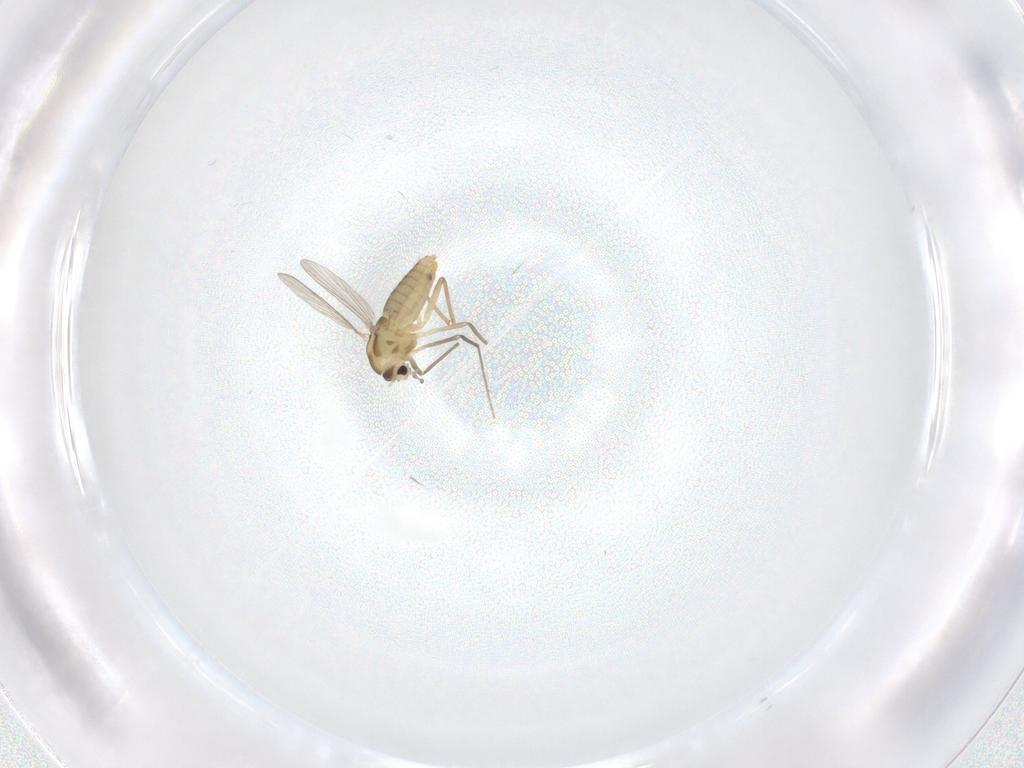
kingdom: Animalia
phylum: Arthropoda
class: Insecta
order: Diptera
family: Chironomidae
